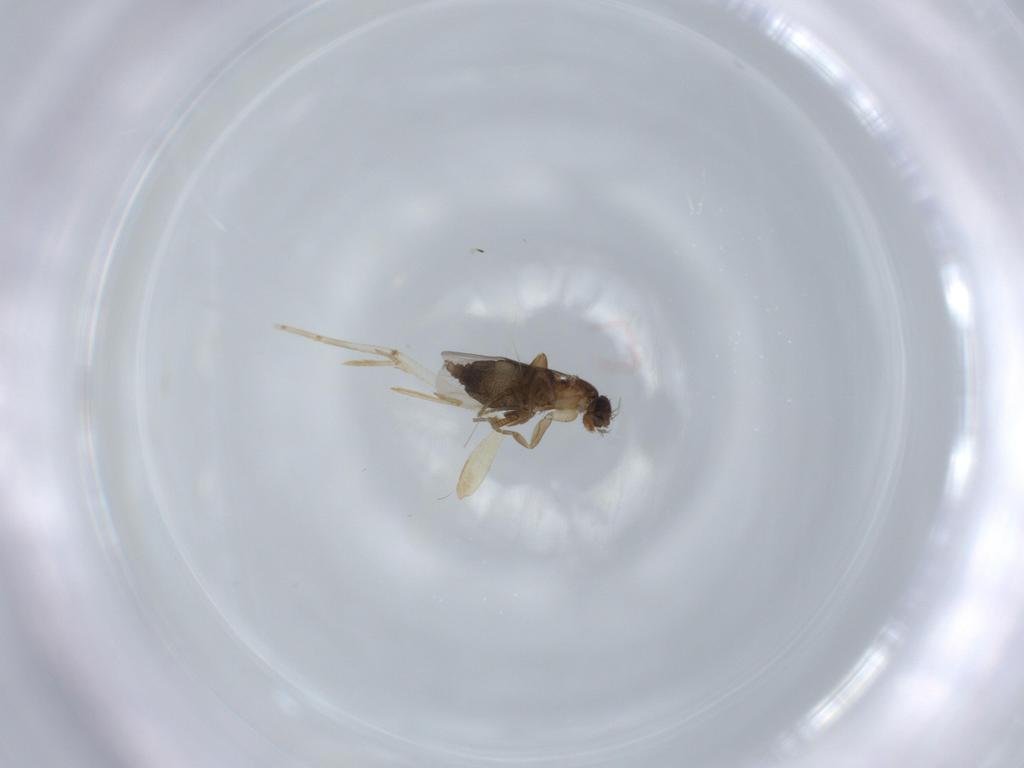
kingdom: Animalia
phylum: Arthropoda
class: Insecta
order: Diptera
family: Phoridae
